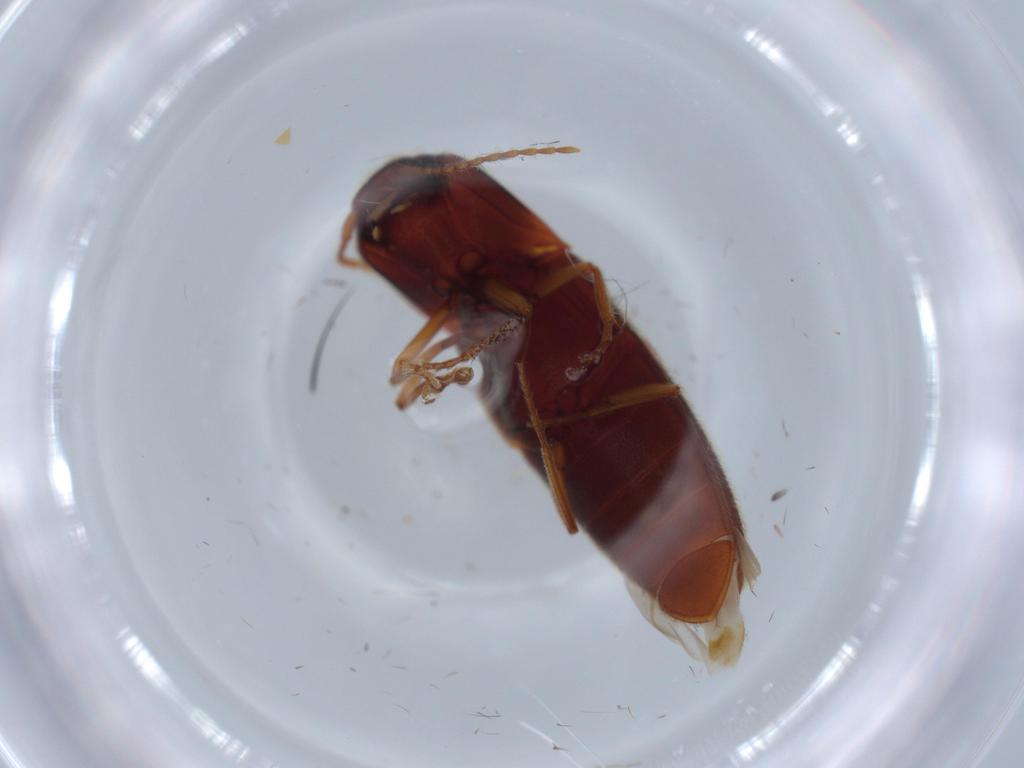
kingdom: Animalia
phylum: Arthropoda
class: Insecta
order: Coleoptera
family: Elateridae
